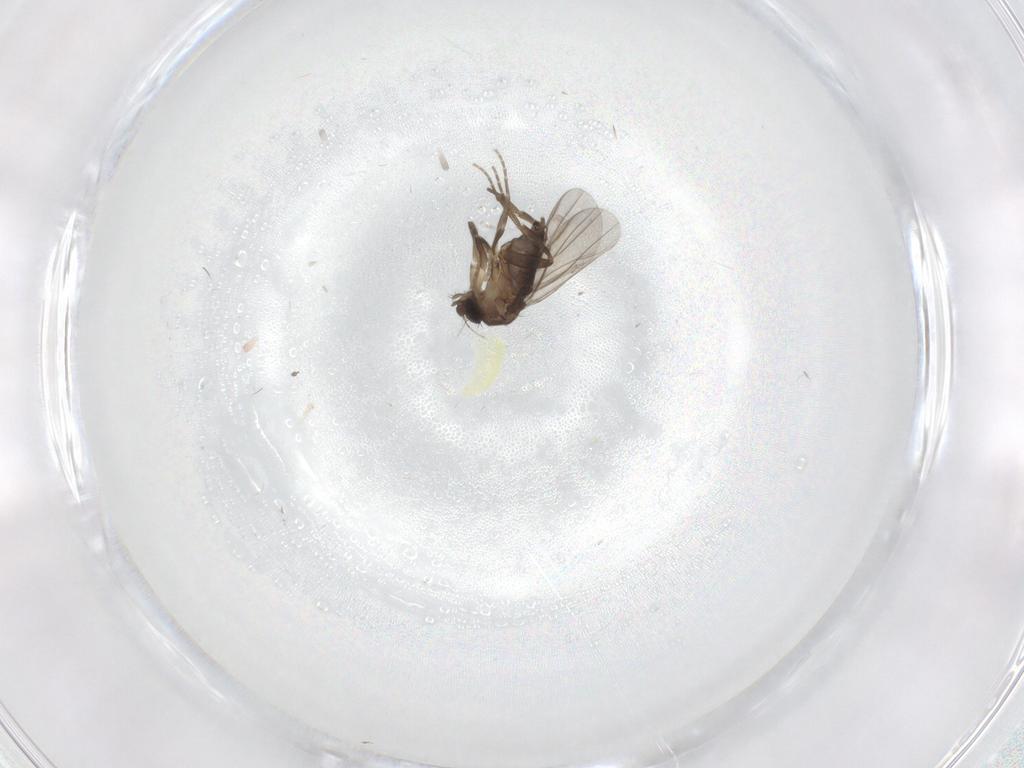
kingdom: Animalia
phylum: Arthropoda
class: Insecta
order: Diptera
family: Phoridae
